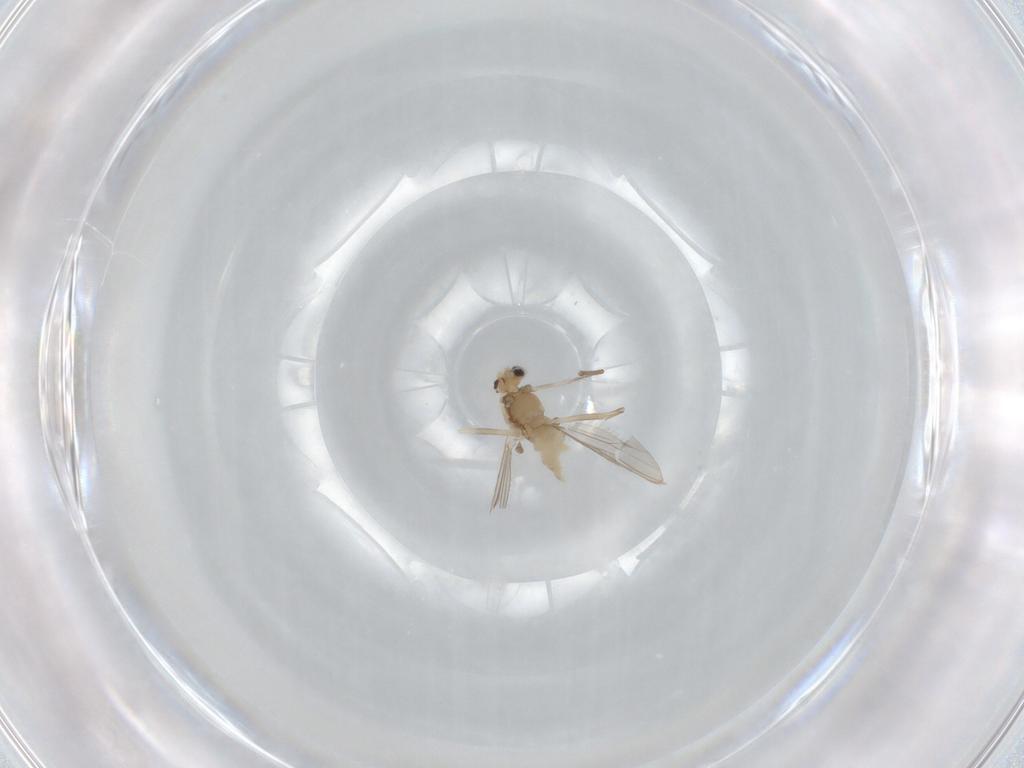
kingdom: Animalia
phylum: Arthropoda
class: Insecta
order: Diptera
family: Chironomidae
